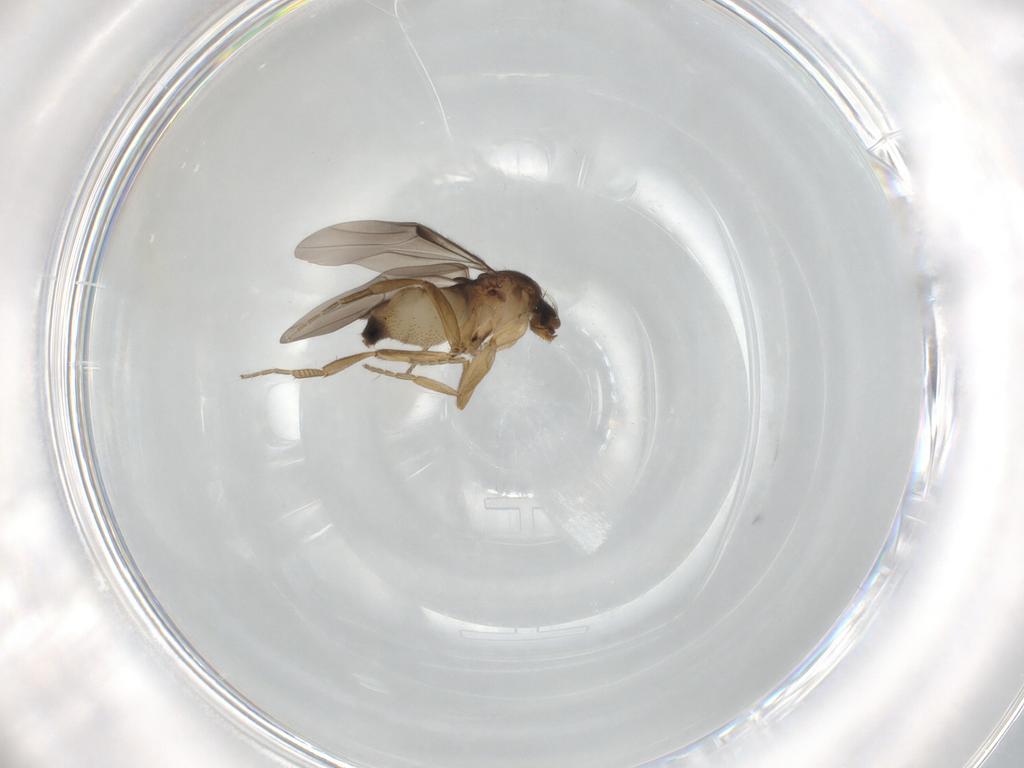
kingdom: Animalia
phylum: Arthropoda
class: Insecta
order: Diptera
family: Phoridae
